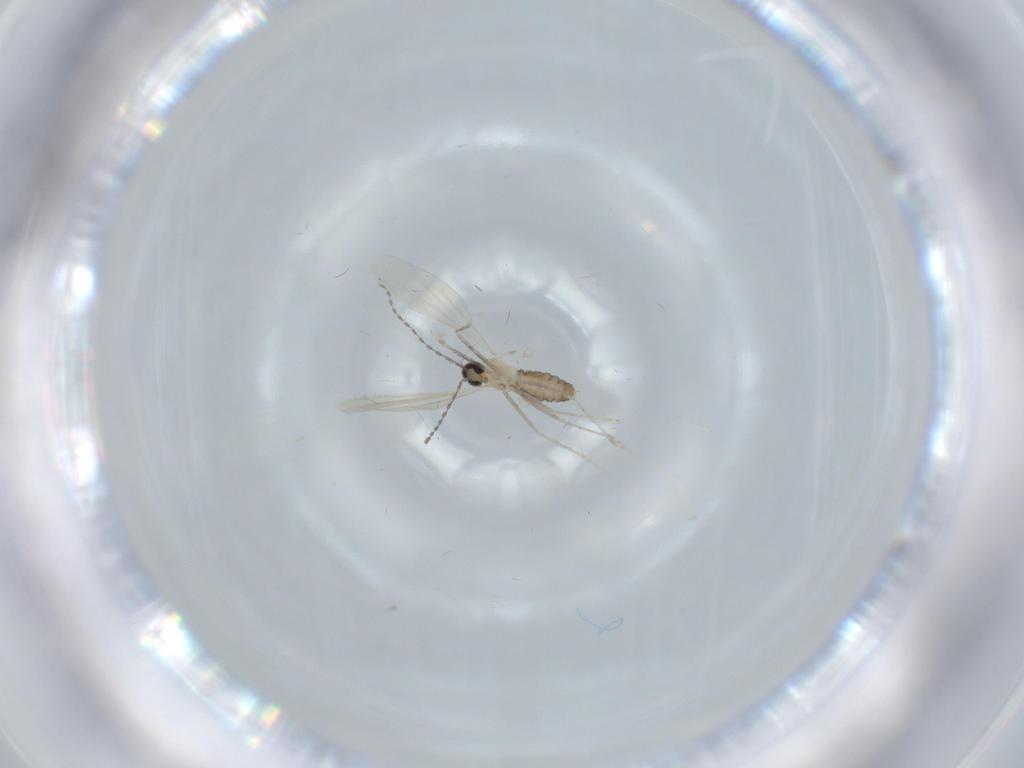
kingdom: Animalia
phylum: Arthropoda
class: Insecta
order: Diptera
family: Cecidomyiidae
